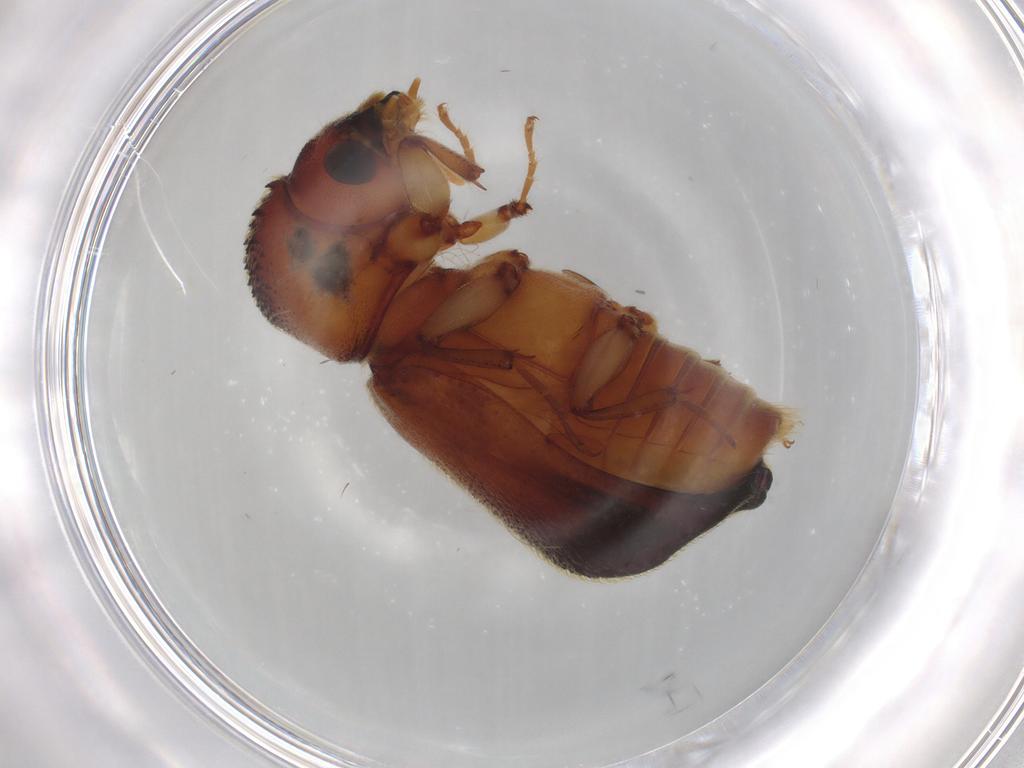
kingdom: Animalia
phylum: Arthropoda
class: Insecta
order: Coleoptera
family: Bostrichidae
